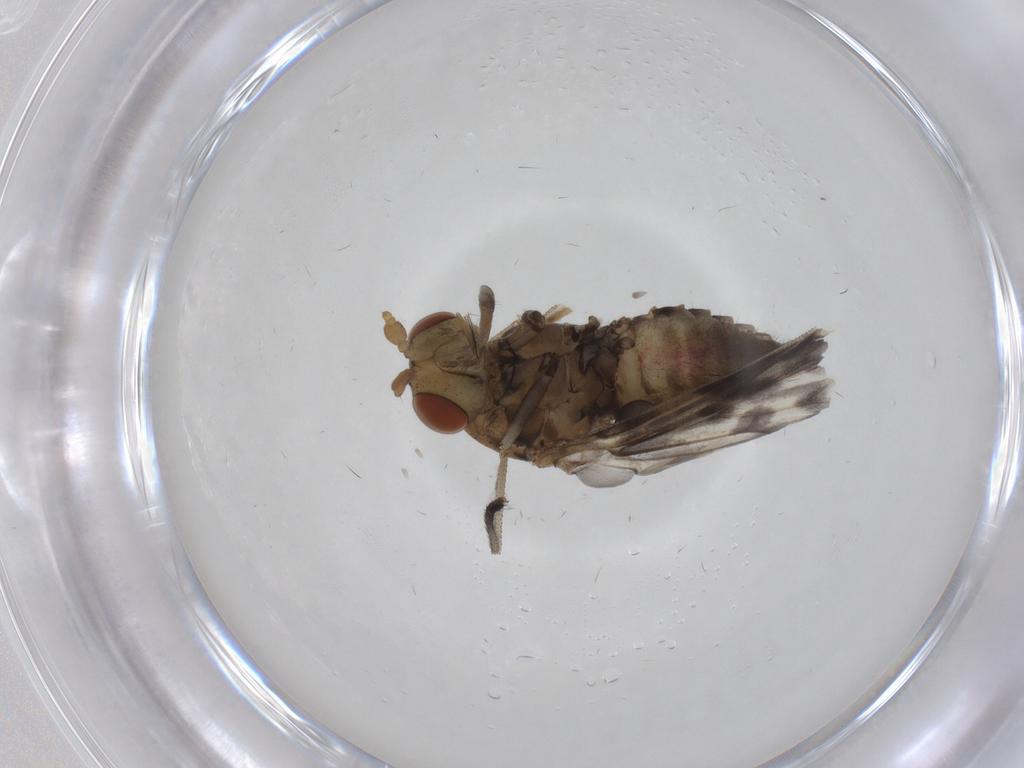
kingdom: Animalia
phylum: Arthropoda
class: Insecta
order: Diptera
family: Austroleptidae
